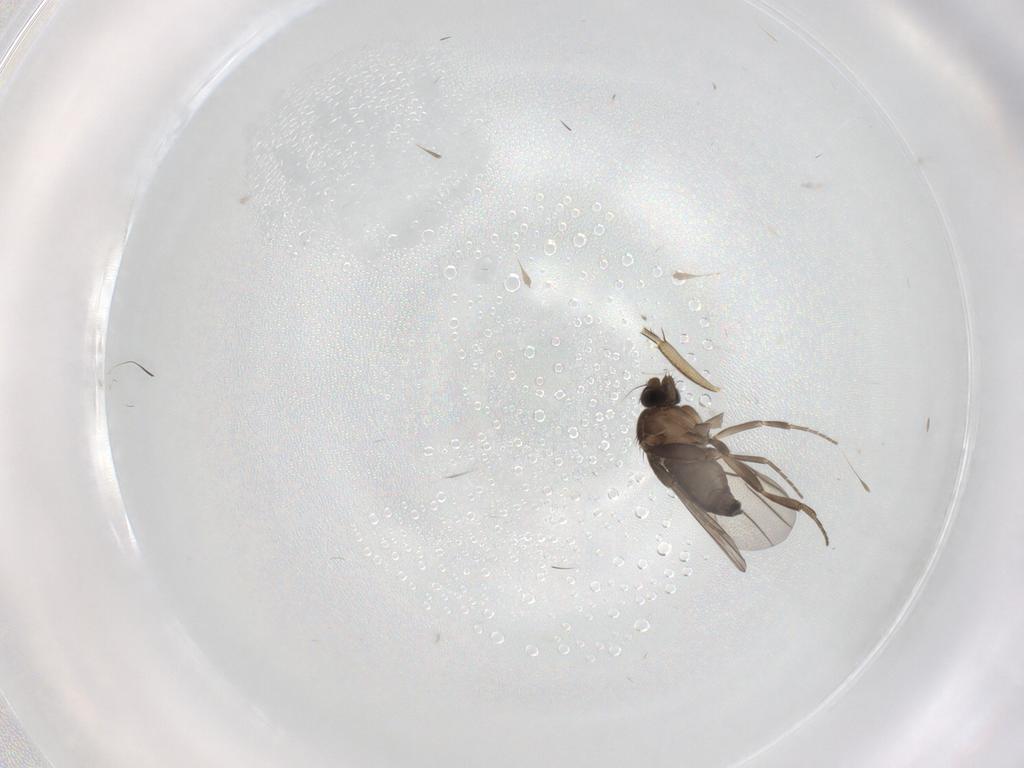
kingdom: Animalia
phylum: Arthropoda
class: Insecta
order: Diptera
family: Phoridae
